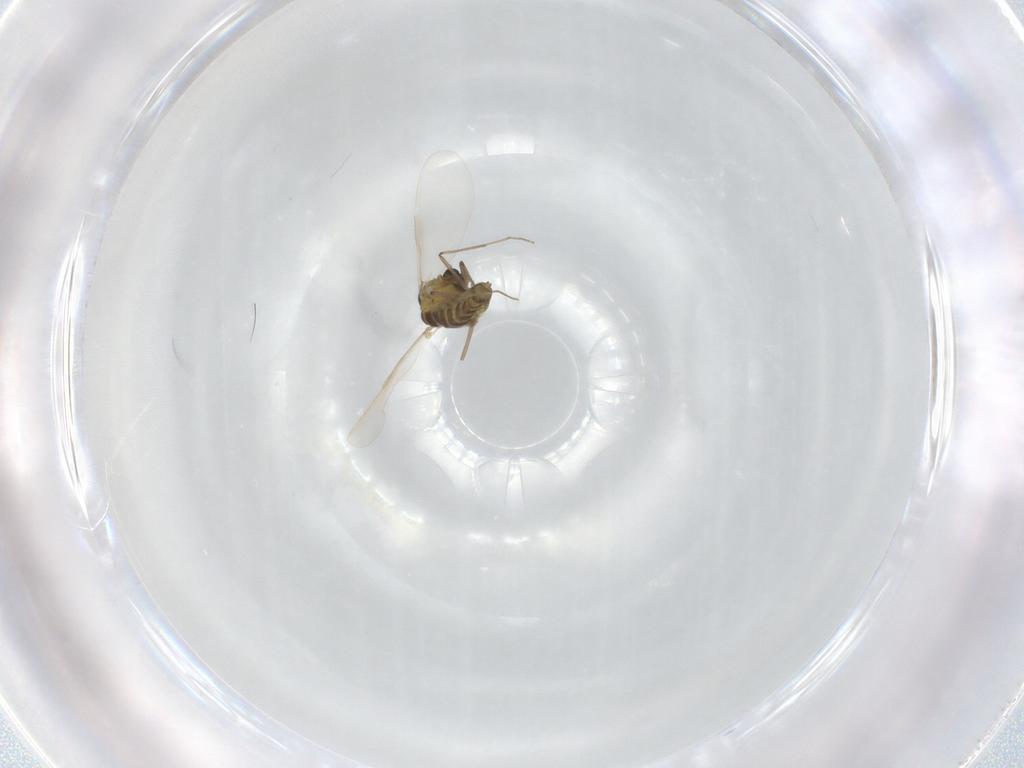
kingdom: Animalia
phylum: Arthropoda
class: Insecta
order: Diptera
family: Chironomidae
